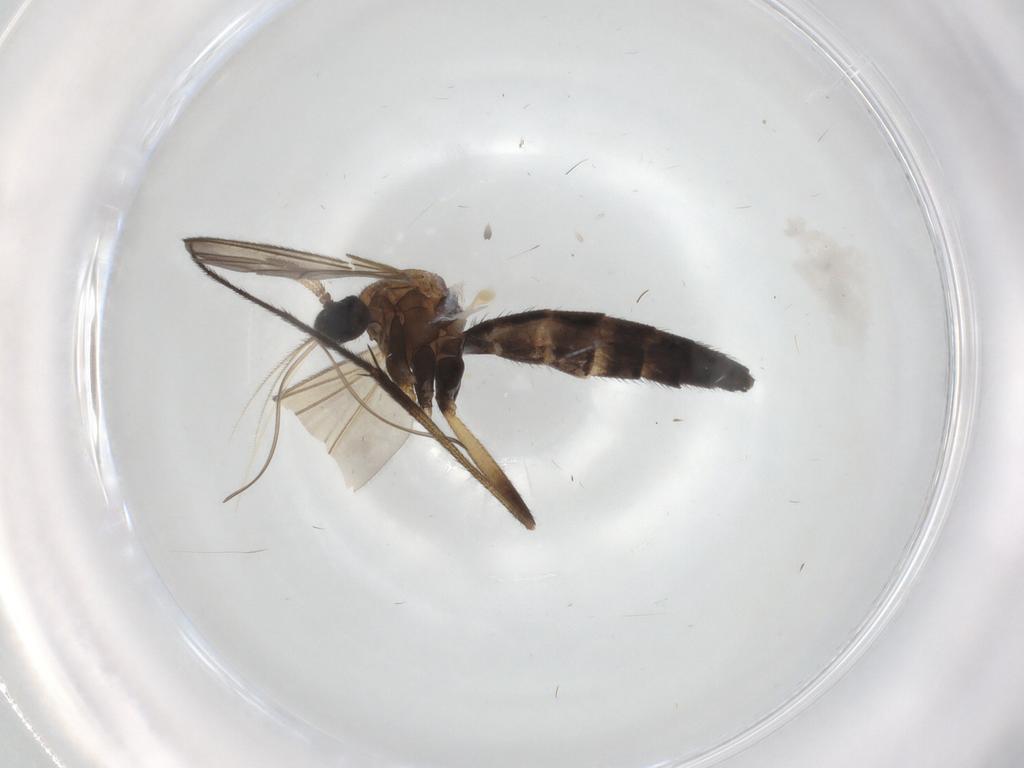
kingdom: Animalia
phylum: Arthropoda
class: Insecta
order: Diptera
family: Keroplatidae
